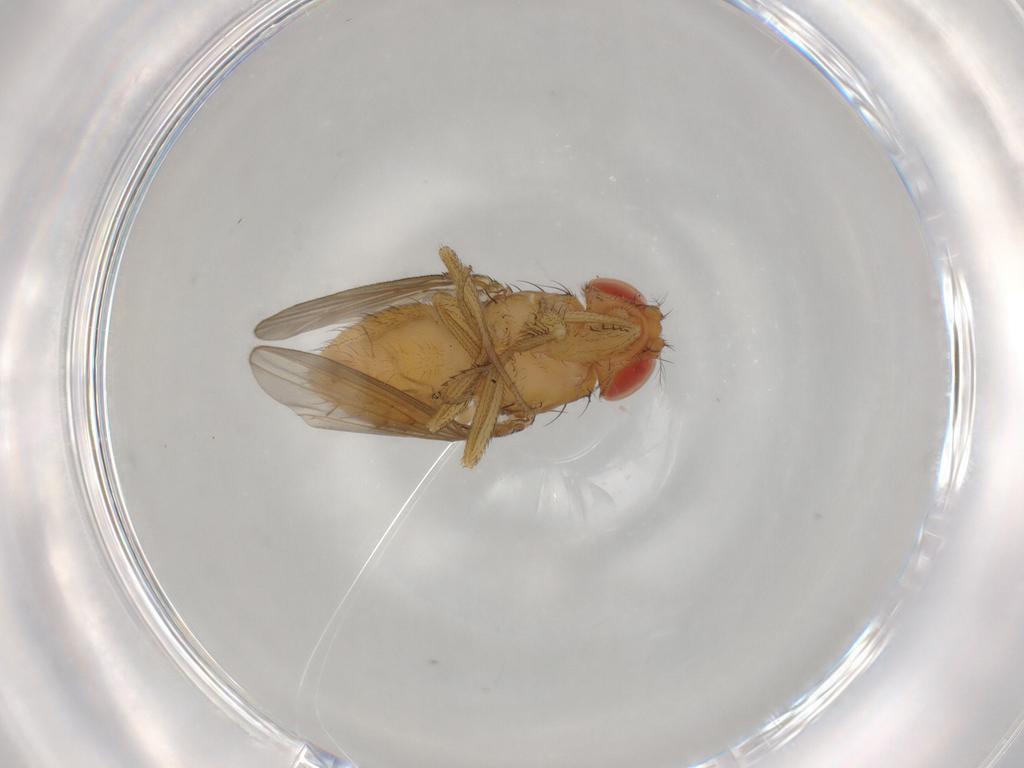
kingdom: Animalia
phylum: Arthropoda
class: Insecta
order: Diptera
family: Drosophilidae
